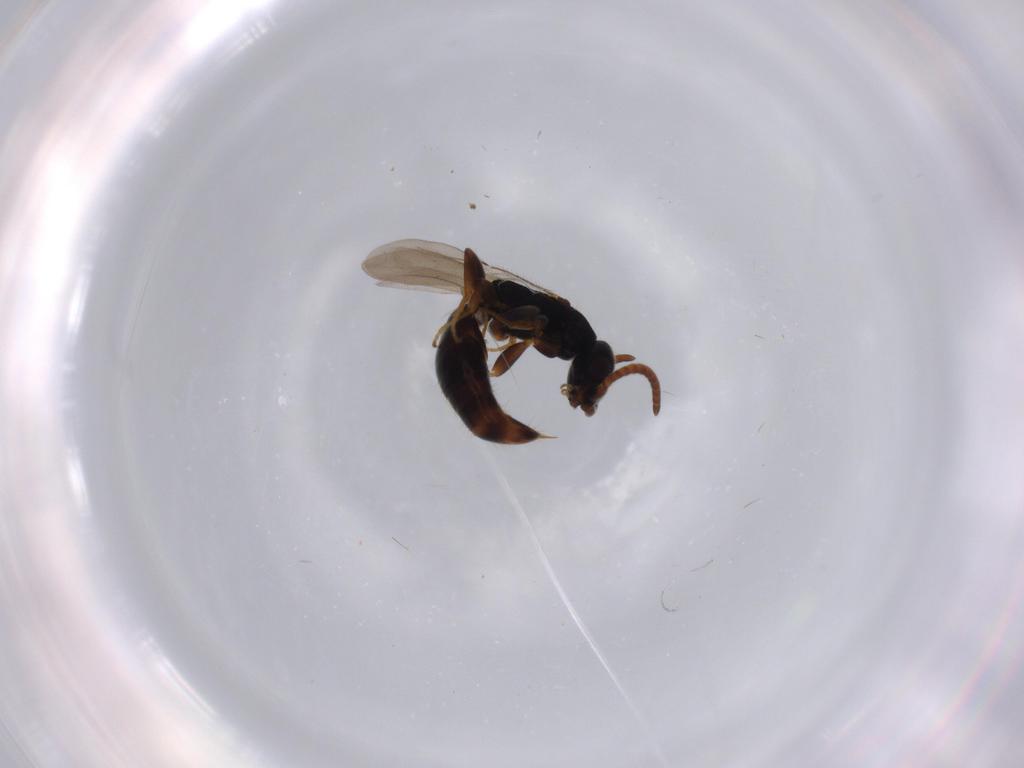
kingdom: Animalia
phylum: Arthropoda
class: Insecta
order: Hymenoptera
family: Bethylidae
